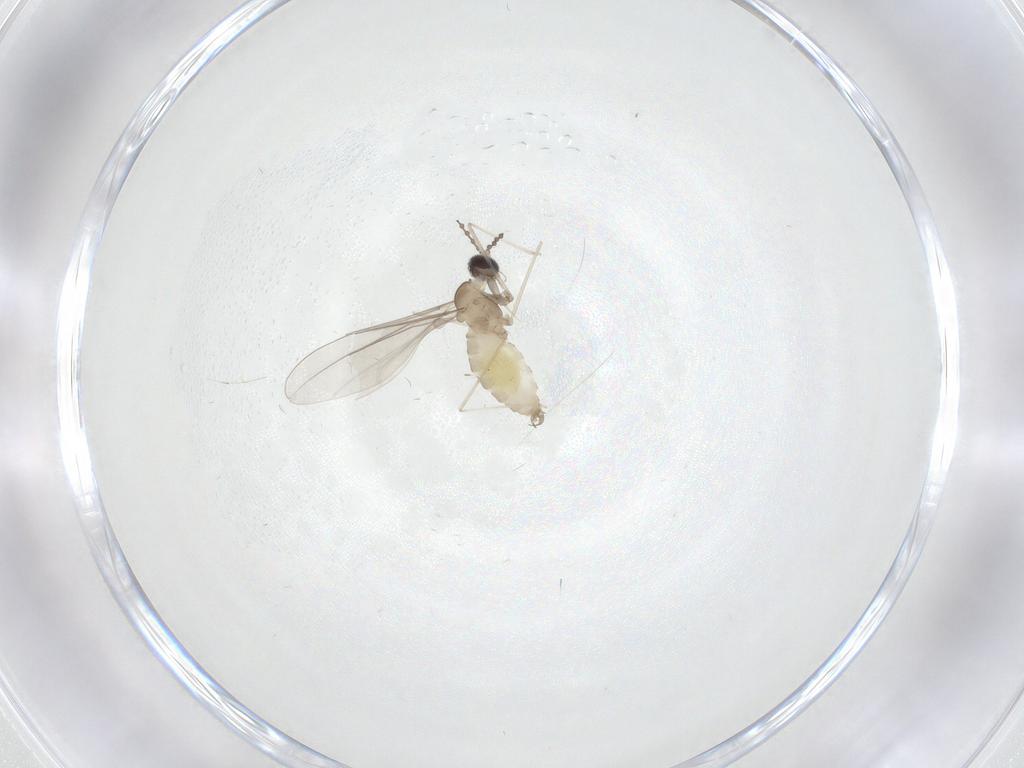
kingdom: Animalia
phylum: Arthropoda
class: Insecta
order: Diptera
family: Cecidomyiidae
